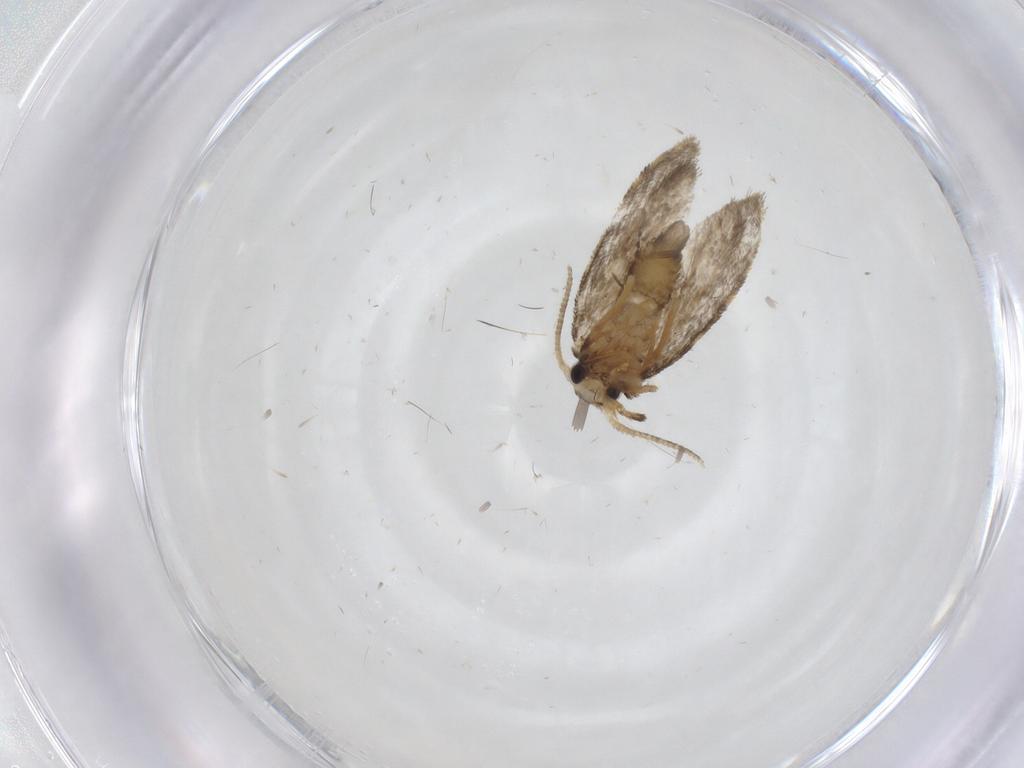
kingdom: Animalia
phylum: Arthropoda
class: Insecta
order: Lepidoptera
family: Psychidae
